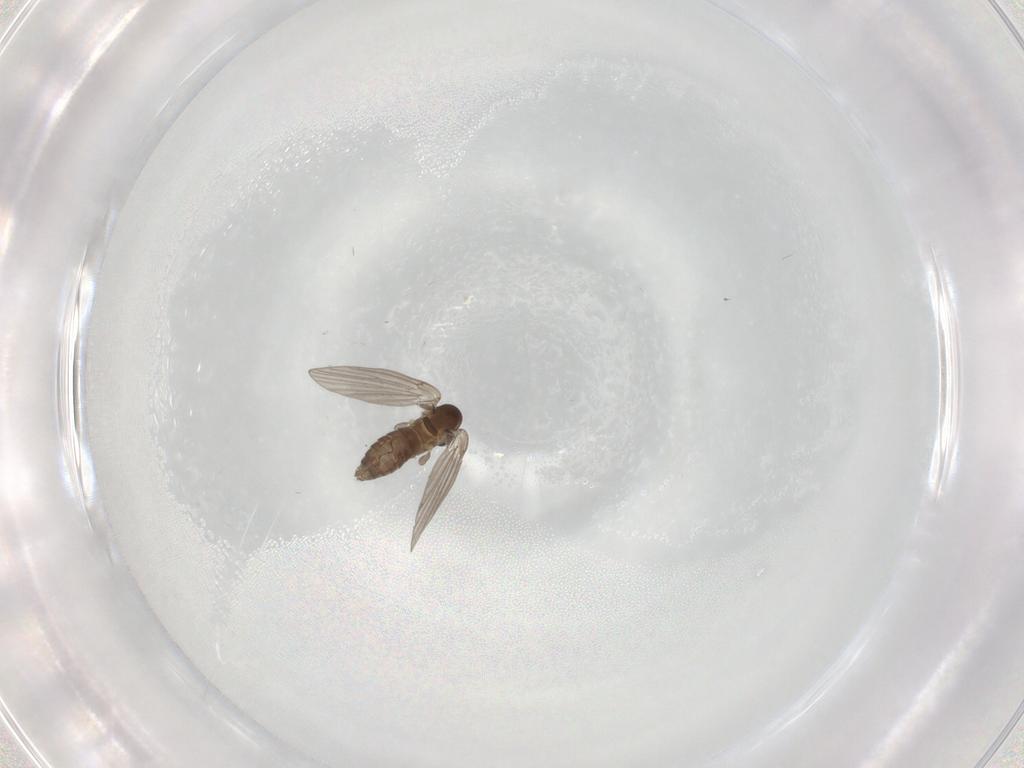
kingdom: Animalia
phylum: Arthropoda
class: Insecta
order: Diptera
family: Psychodidae
